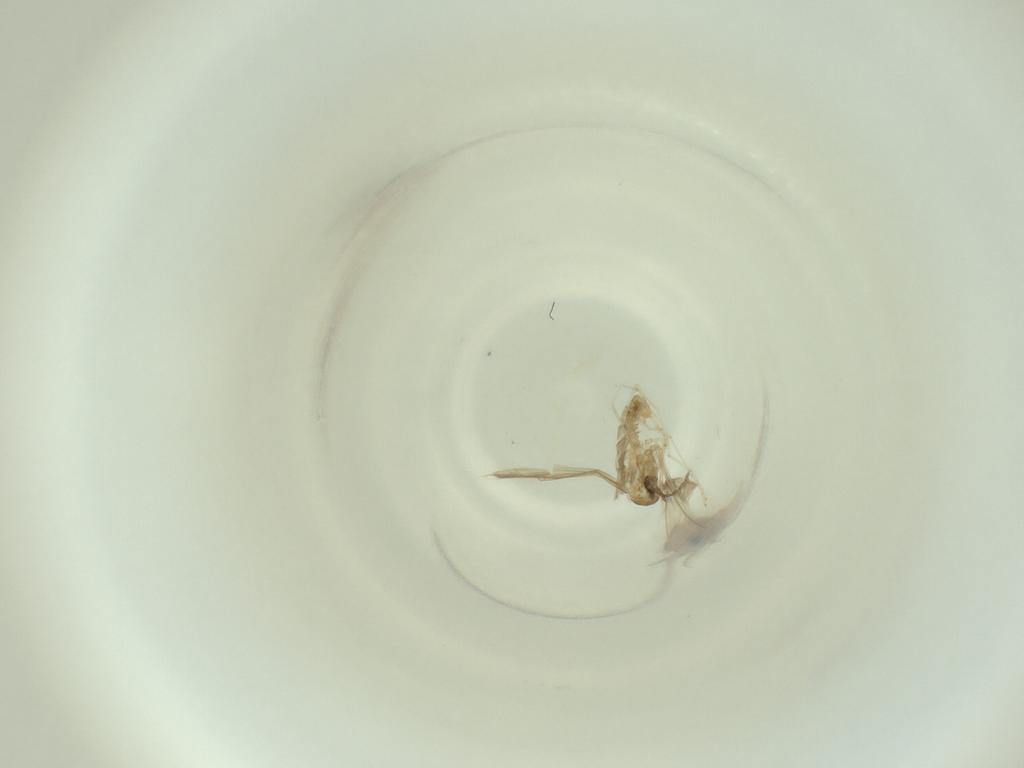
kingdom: Animalia
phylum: Arthropoda
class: Insecta
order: Diptera
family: Cecidomyiidae
